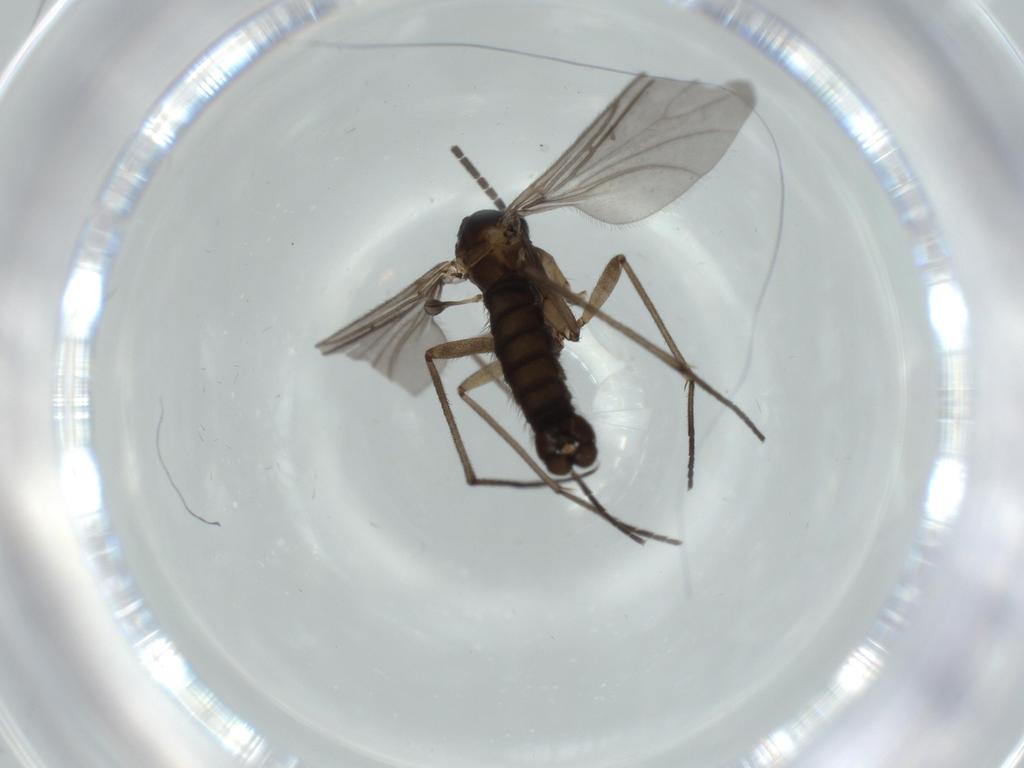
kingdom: Animalia
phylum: Arthropoda
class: Insecta
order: Diptera
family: Sciaridae
